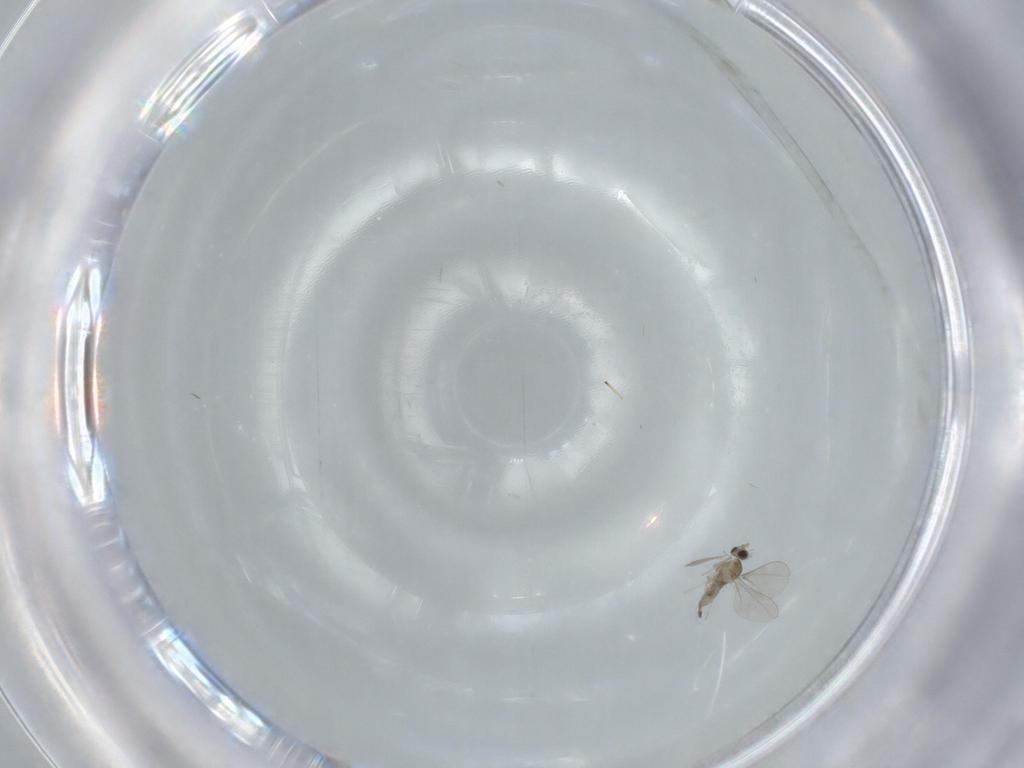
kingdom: Animalia
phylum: Arthropoda
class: Insecta
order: Diptera
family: Cecidomyiidae
